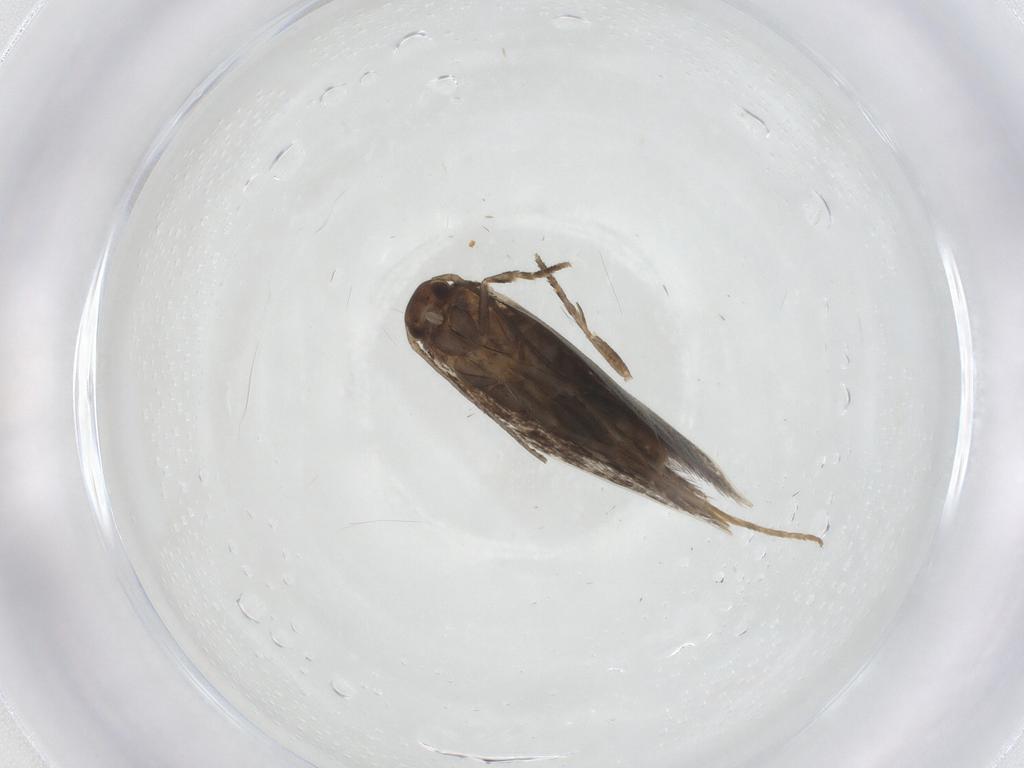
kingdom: Animalia
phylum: Arthropoda
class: Insecta
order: Lepidoptera
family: Elachistidae
